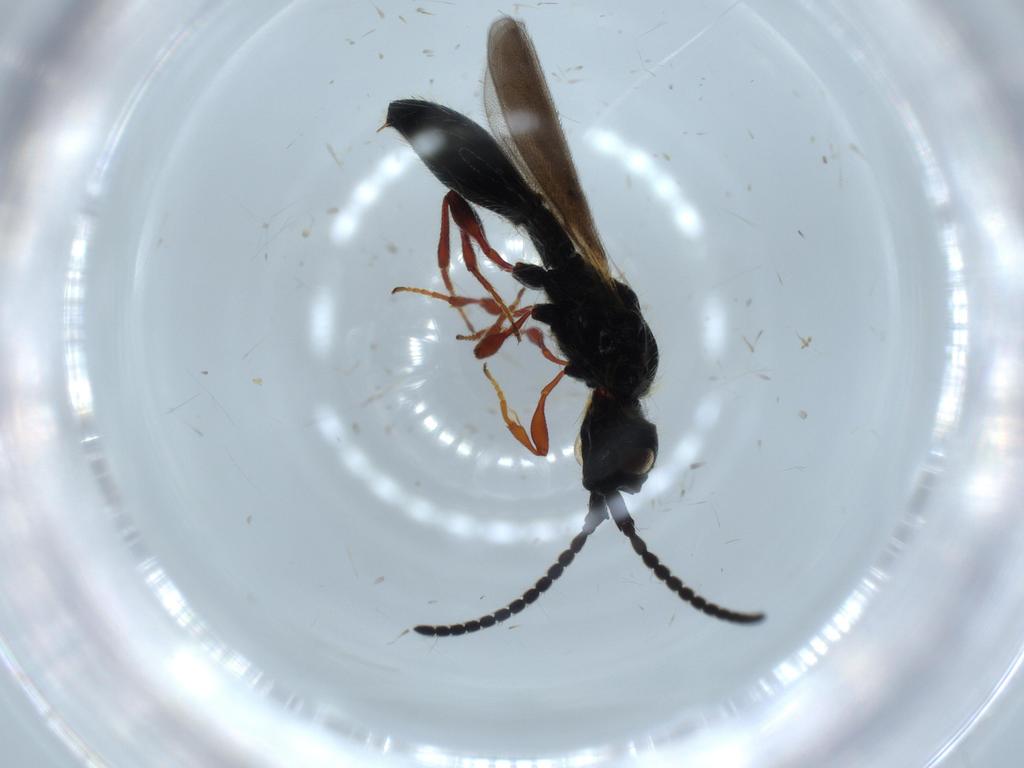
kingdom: Animalia
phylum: Arthropoda
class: Insecta
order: Hymenoptera
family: Diapriidae
